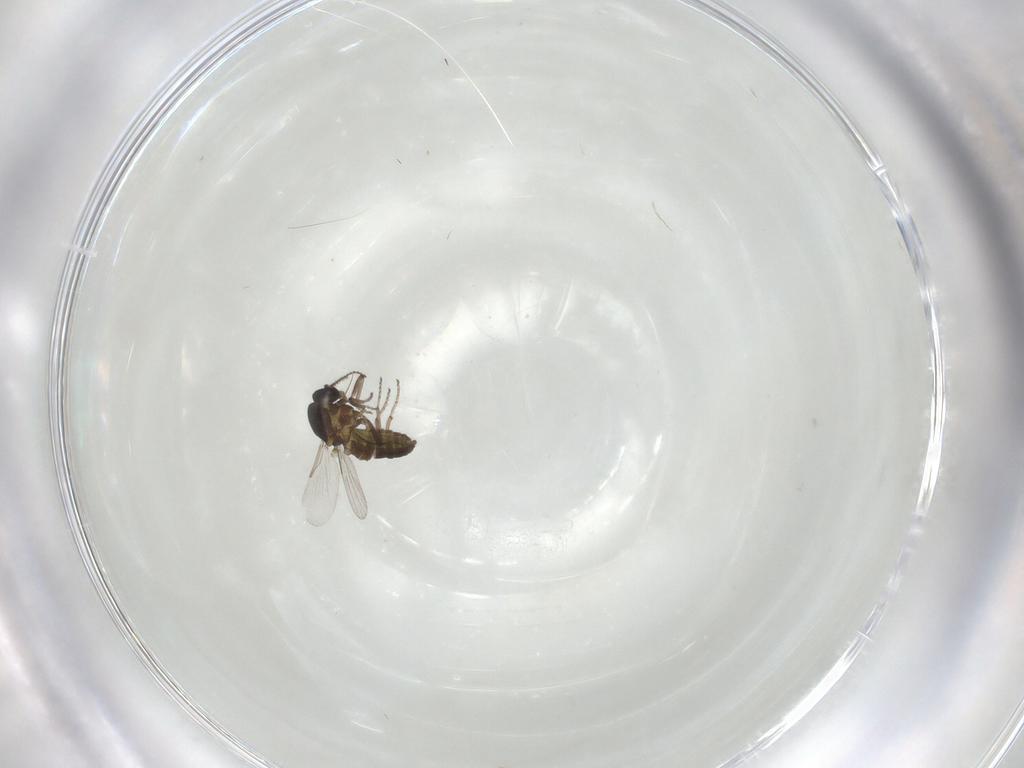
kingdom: Animalia
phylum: Arthropoda
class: Insecta
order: Diptera
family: Ceratopogonidae
